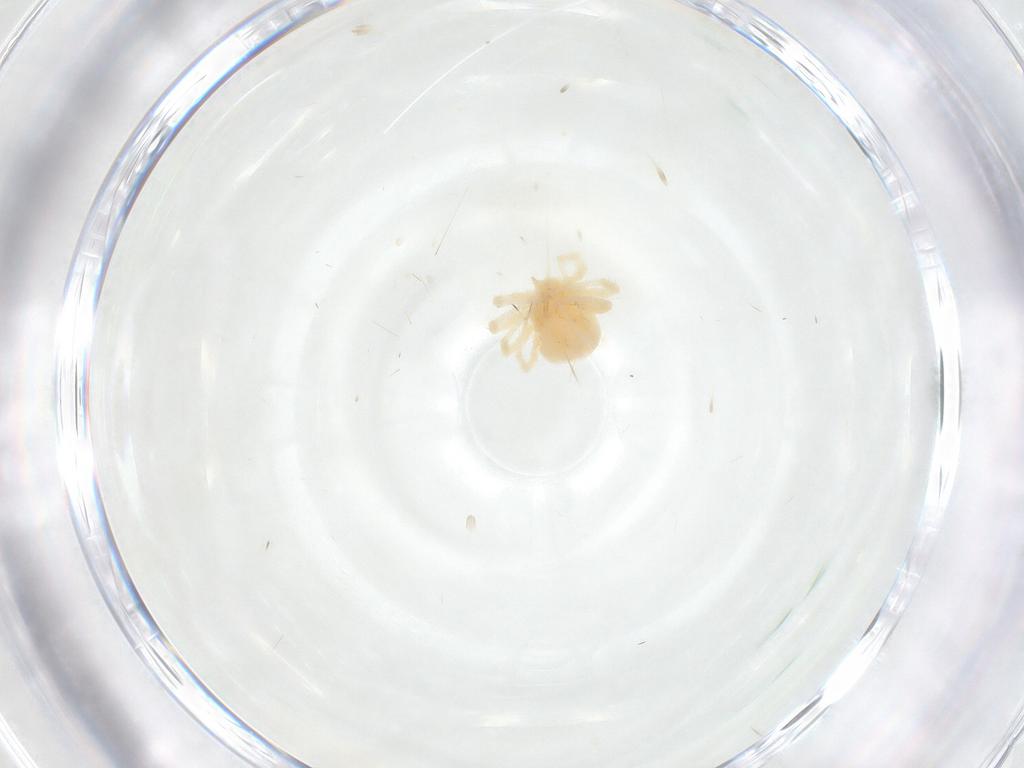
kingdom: Animalia
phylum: Arthropoda
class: Arachnida
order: Araneae
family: Anyphaenidae
